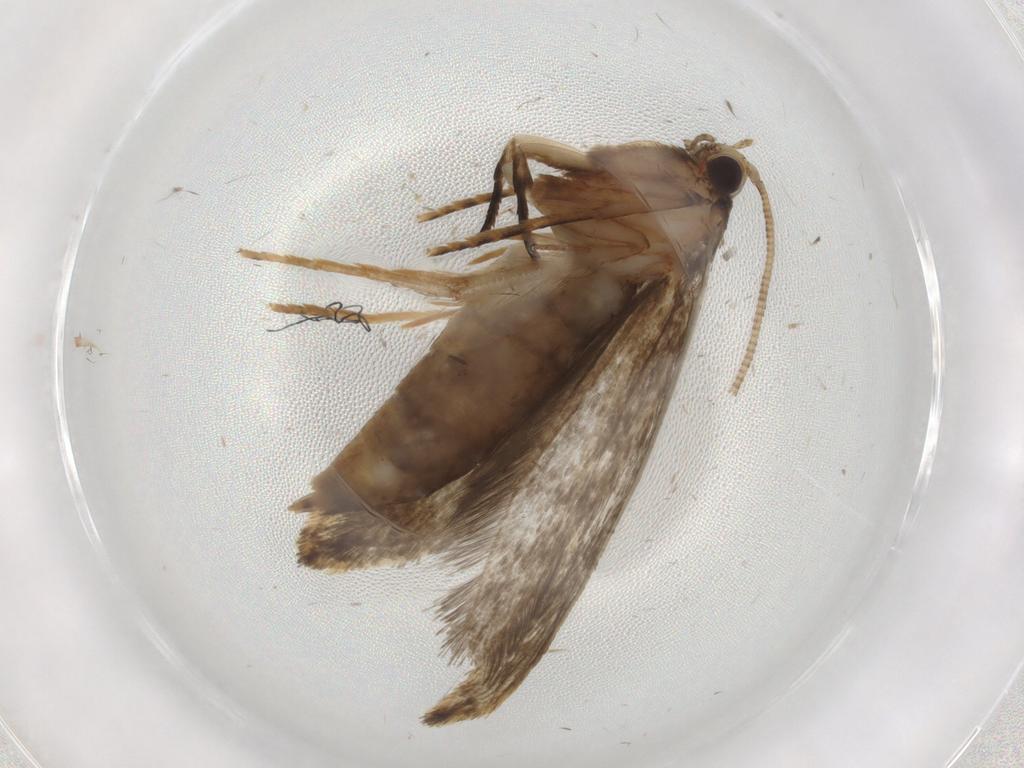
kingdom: Animalia
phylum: Arthropoda
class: Insecta
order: Lepidoptera
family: Tineidae
